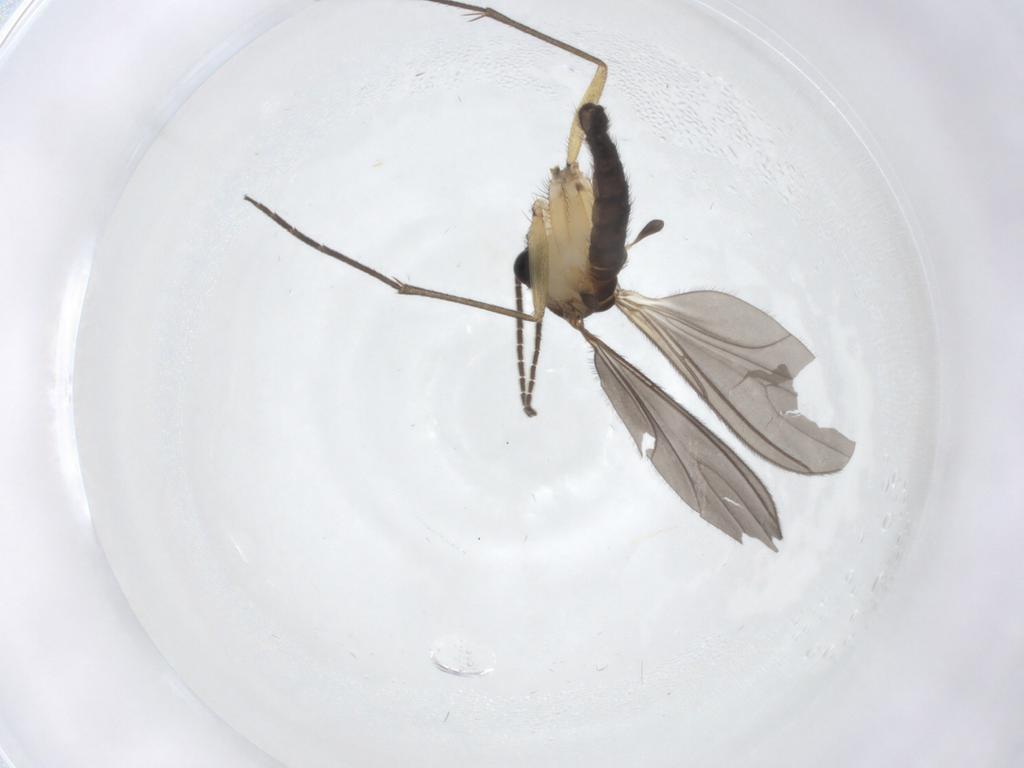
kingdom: Animalia
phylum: Arthropoda
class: Insecta
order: Diptera
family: Sciaridae
